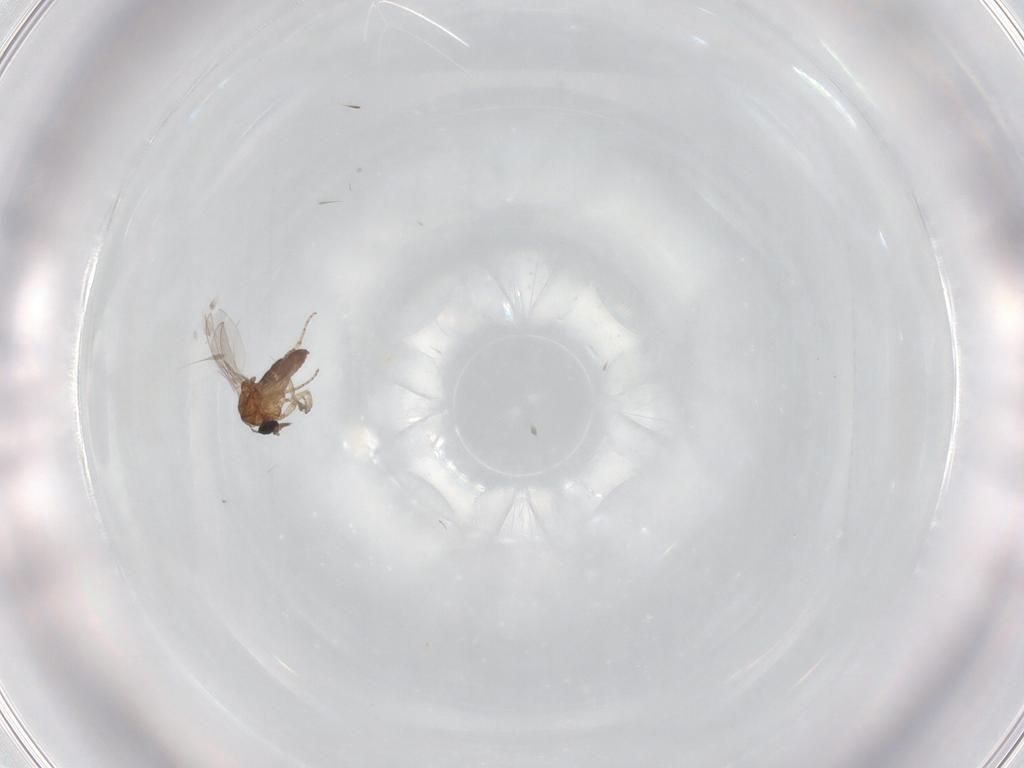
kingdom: Animalia
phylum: Arthropoda
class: Insecta
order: Diptera
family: Ceratopogonidae
